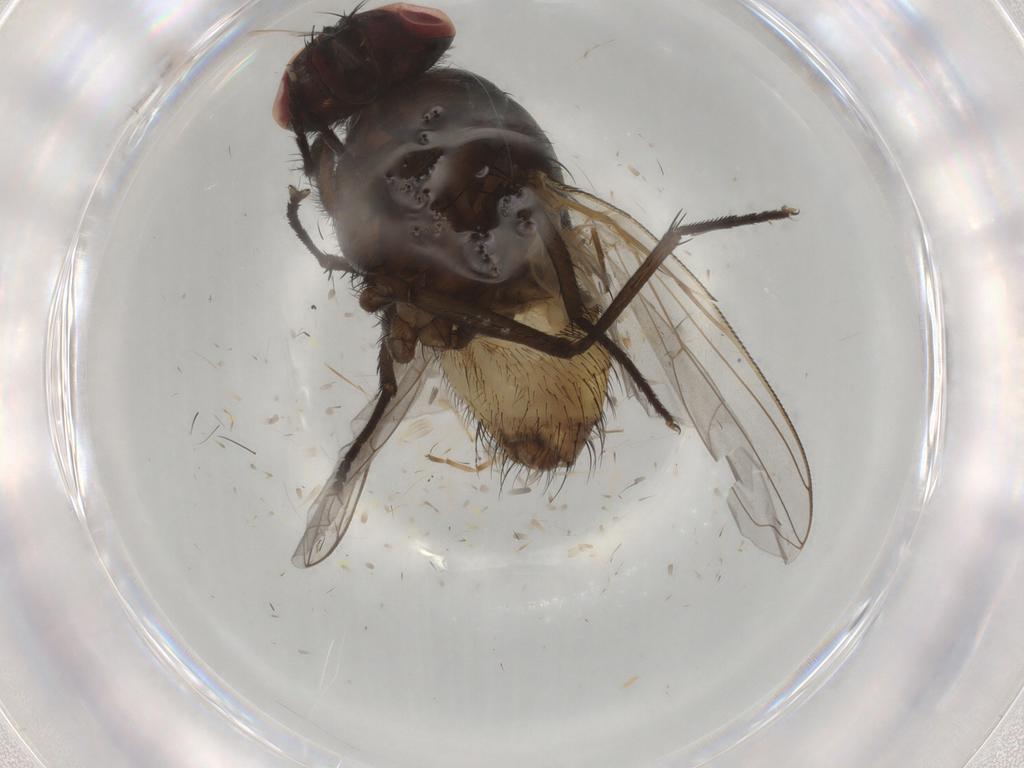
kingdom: Animalia
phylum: Arthropoda
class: Insecta
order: Diptera
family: Muscidae
